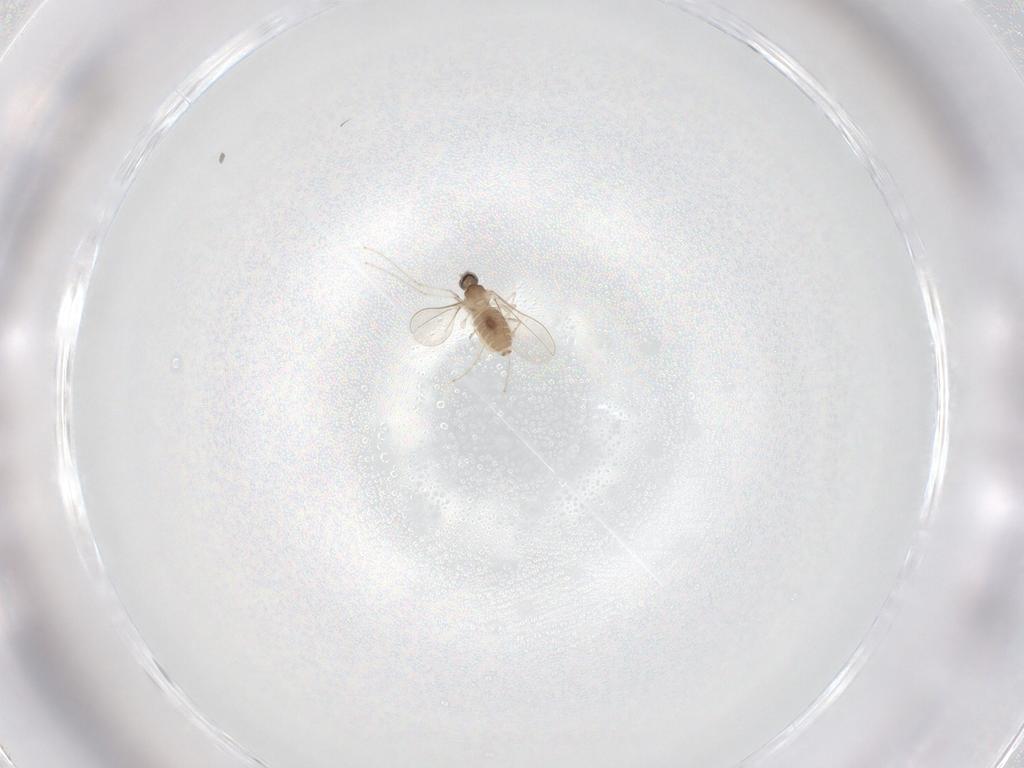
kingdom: Animalia
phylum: Arthropoda
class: Insecta
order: Diptera
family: Cecidomyiidae
